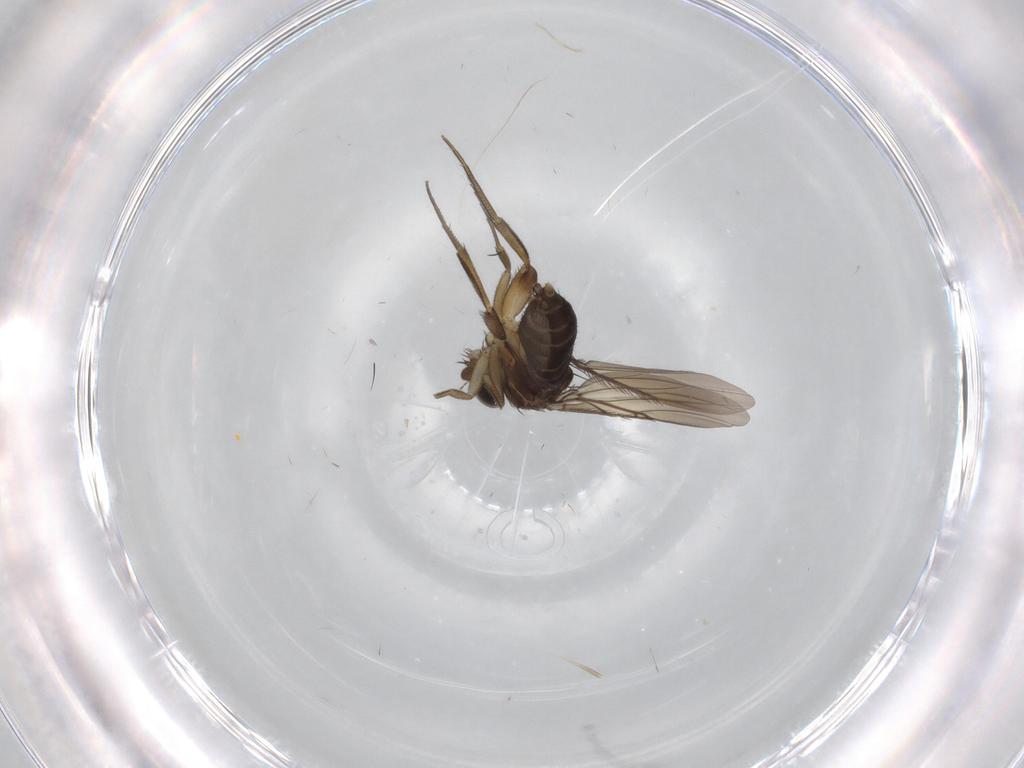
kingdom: Animalia
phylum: Arthropoda
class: Insecta
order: Diptera
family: Phoridae
